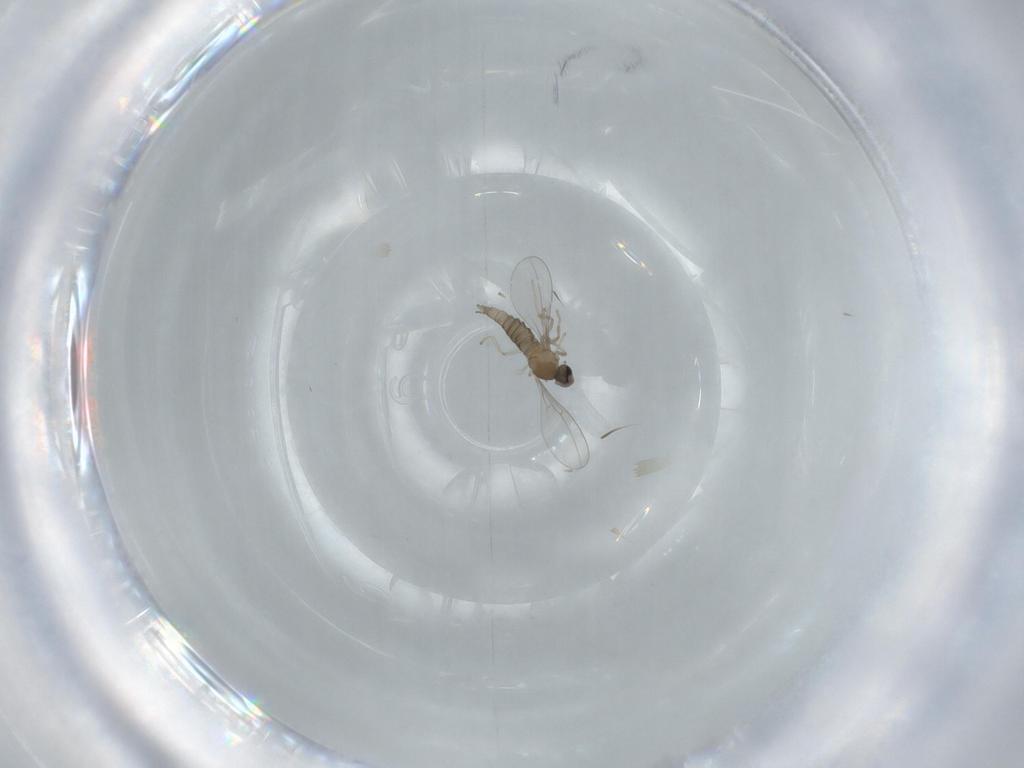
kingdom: Animalia
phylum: Arthropoda
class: Insecta
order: Diptera
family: Cecidomyiidae
